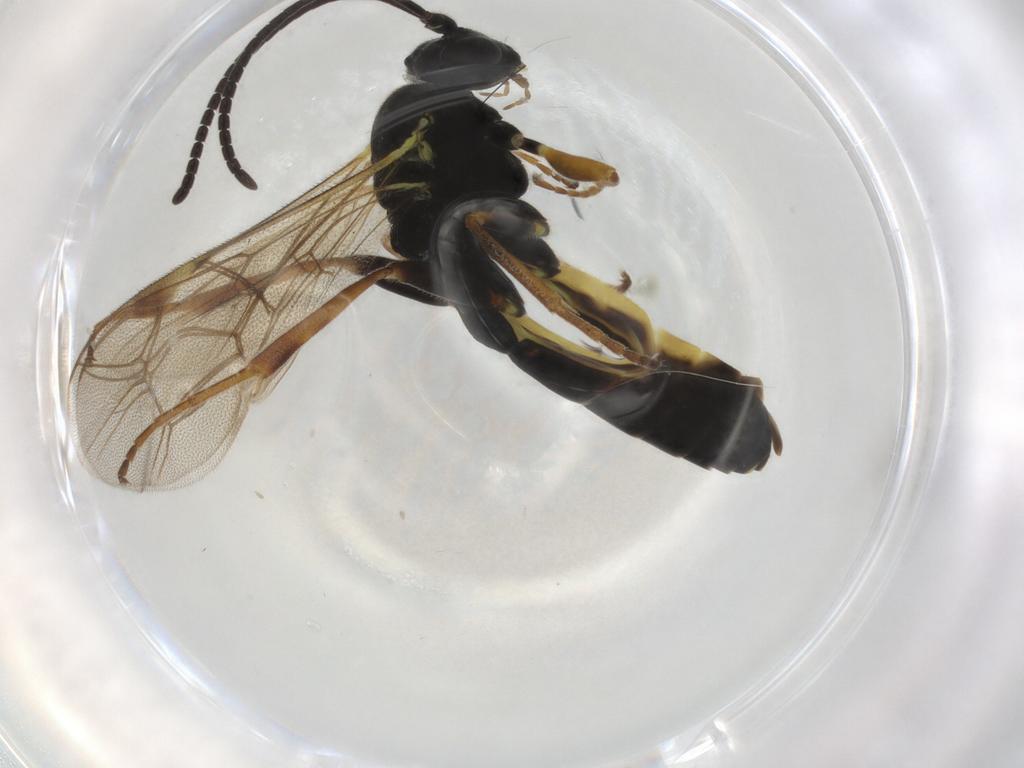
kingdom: Animalia
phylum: Arthropoda
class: Insecta
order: Hymenoptera
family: Ichneumonidae
